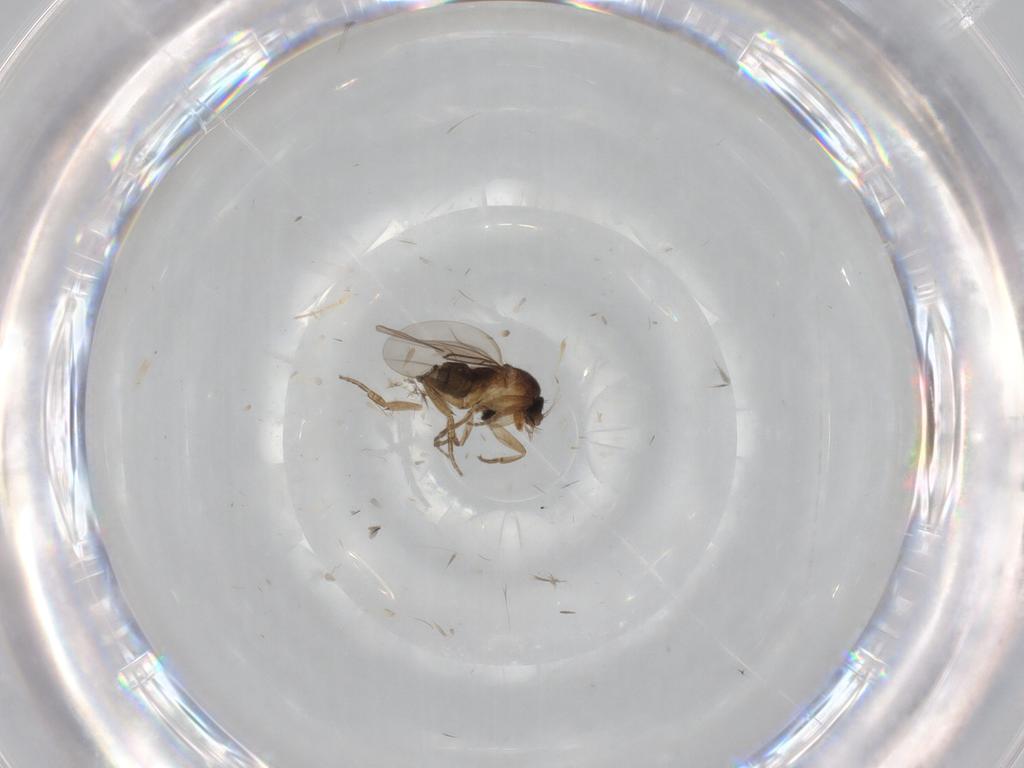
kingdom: Animalia
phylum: Arthropoda
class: Insecta
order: Diptera
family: Phoridae
